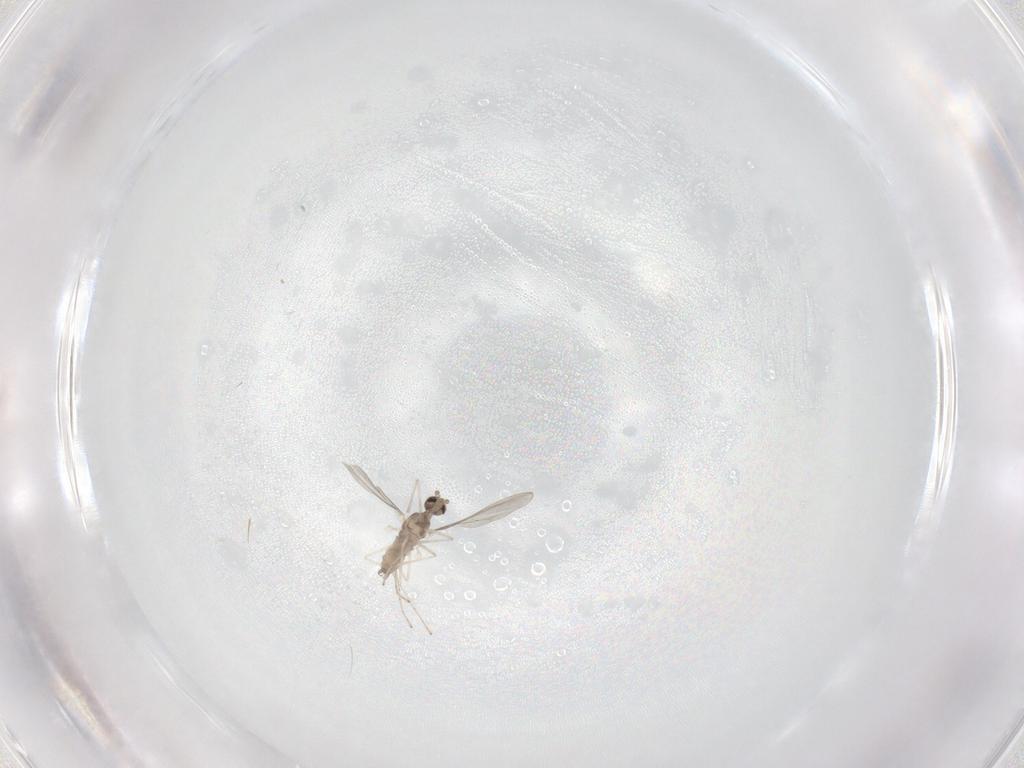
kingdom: Animalia
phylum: Arthropoda
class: Insecta
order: Diptera
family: Cecidomyiidae
